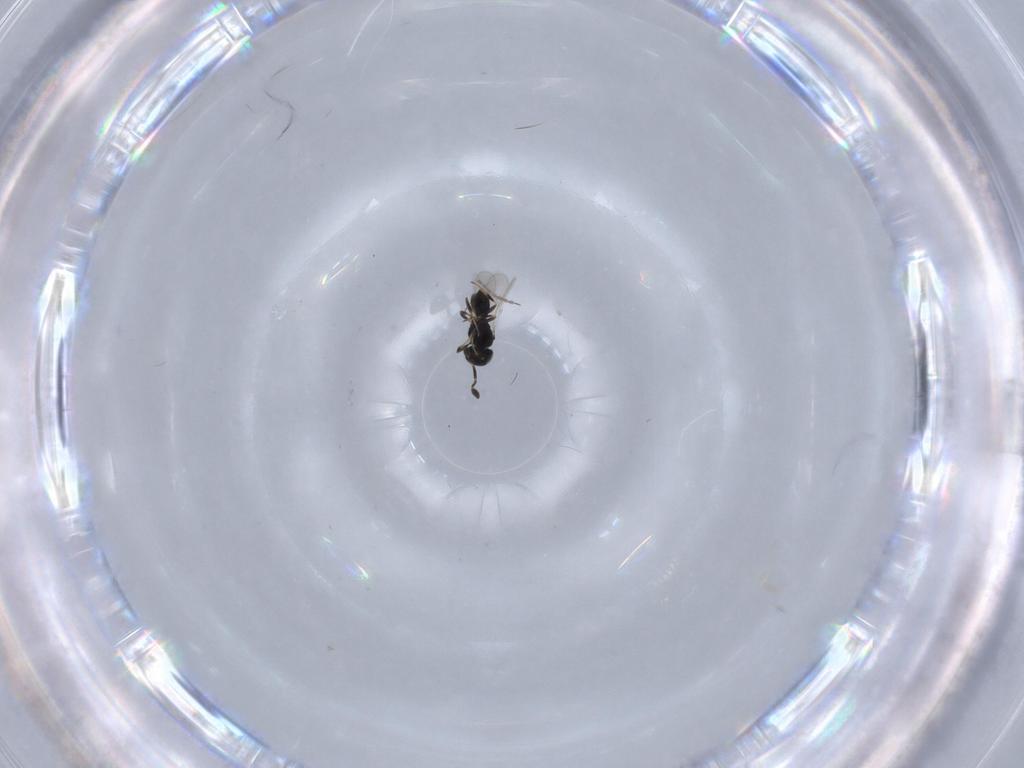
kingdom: Animalia
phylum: Arthropoda
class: Insecta
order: Hymenoptera
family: Scelionidae
